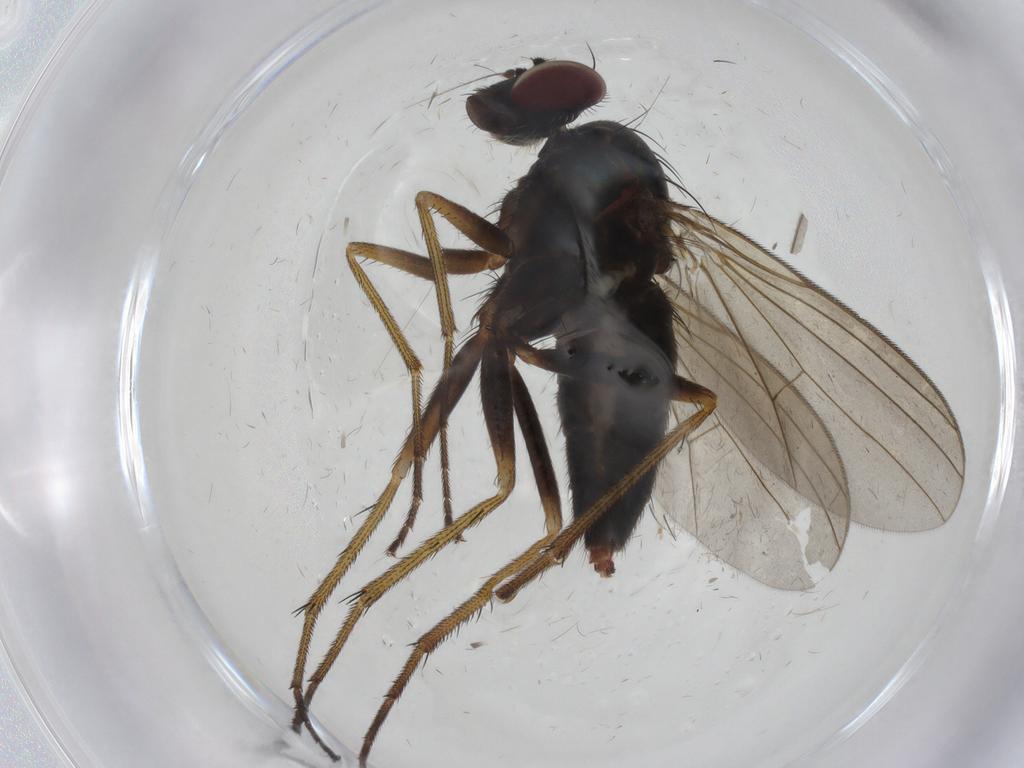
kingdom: Animalia
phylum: Arthropoda
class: Insecta
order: Diptera
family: Dolichopodidae
